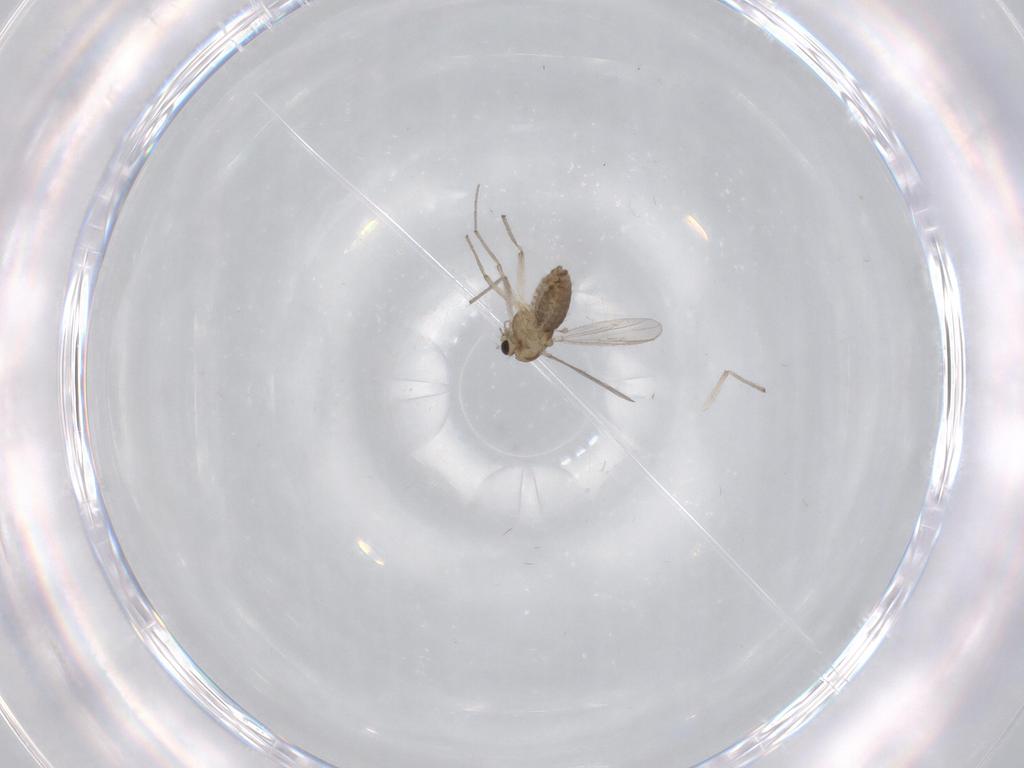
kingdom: Animalia
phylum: Arthropoda
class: Insecta
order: Diptera
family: Chironomidae
